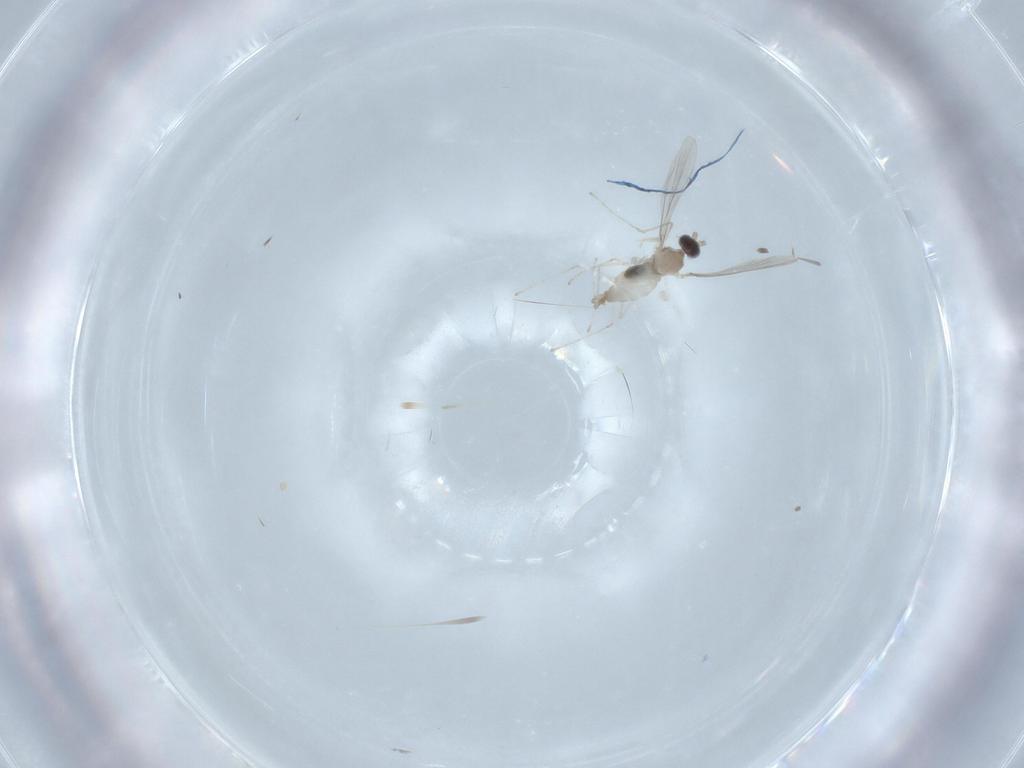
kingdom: Animalia
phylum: Arthropoda
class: Insecta
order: Diptera
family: Cecidomyiidae
